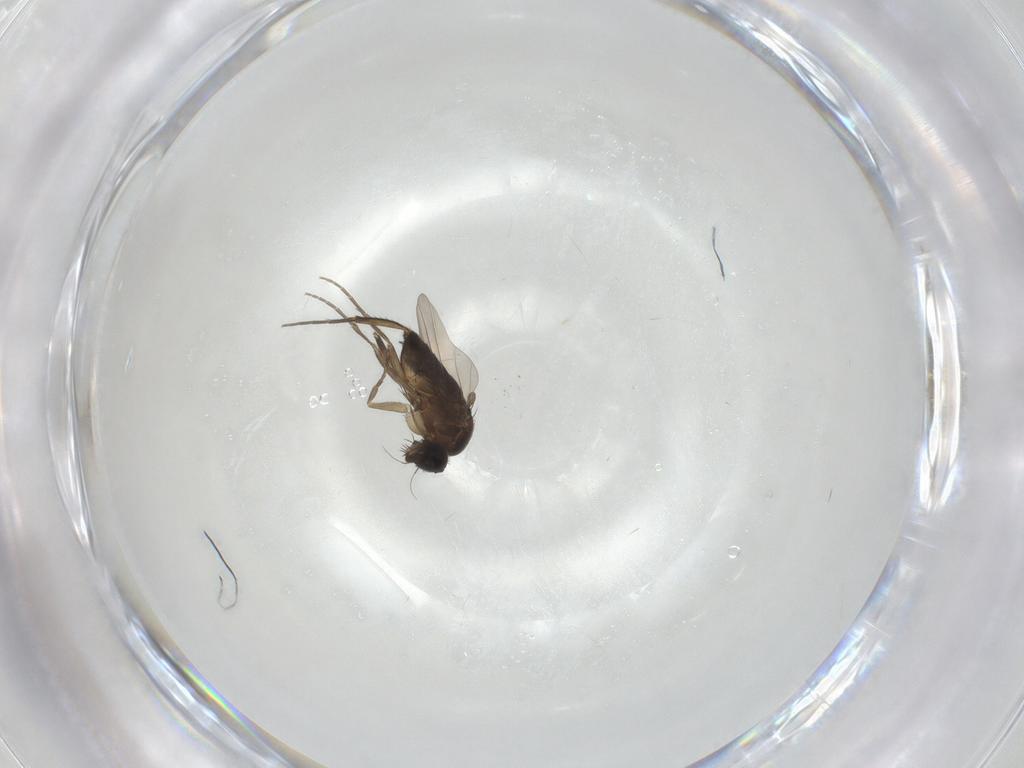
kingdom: Animalia
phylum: Arthropoda
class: Insecta
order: Diptera
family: Phoridae
